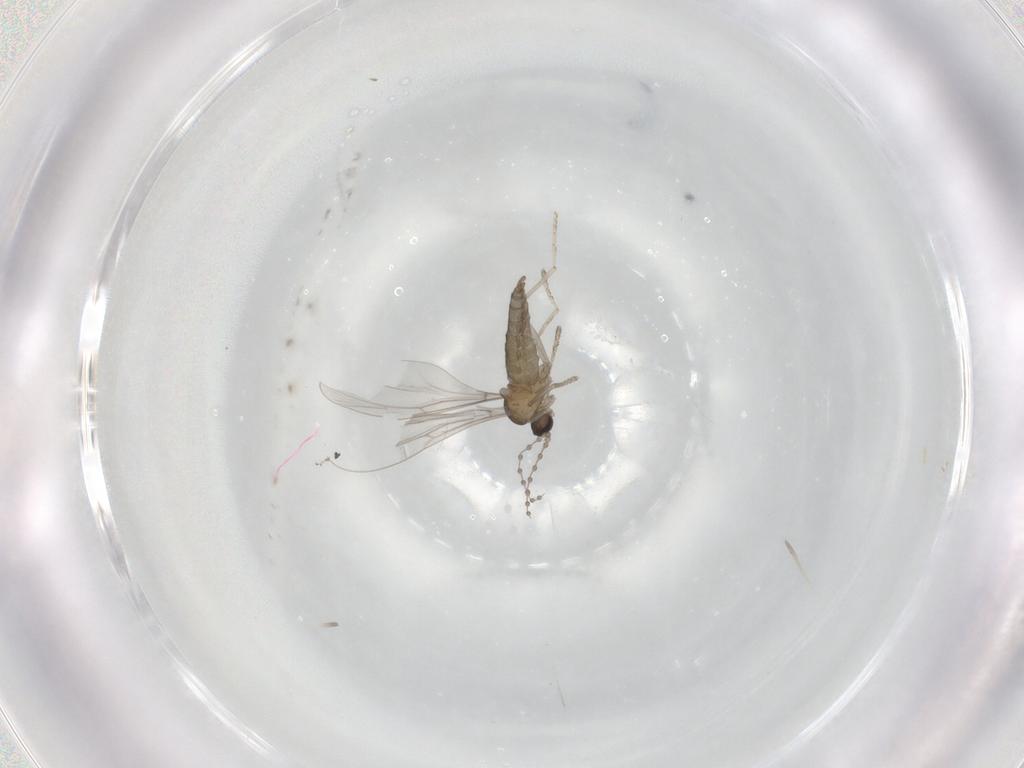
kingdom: Animalia
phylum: Arthropoda
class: Insecta
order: Diptera
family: Cecidomyiidae
